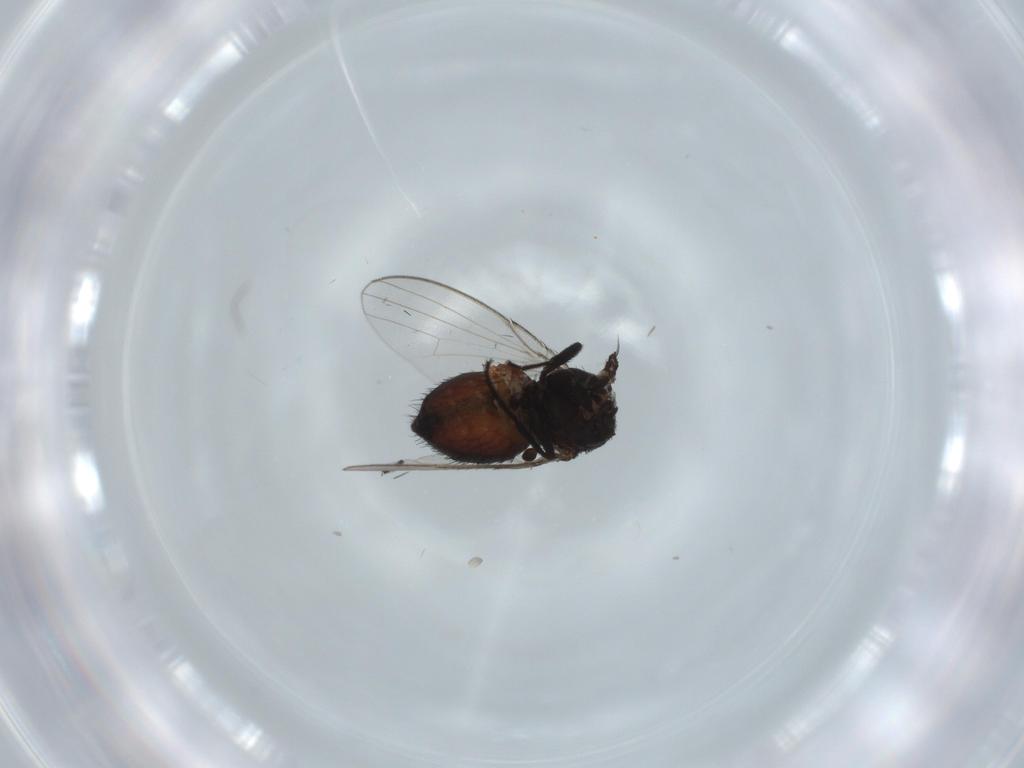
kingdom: Animalia
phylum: Arthropoda
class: Insecta
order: Diptera
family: Milichiidae
